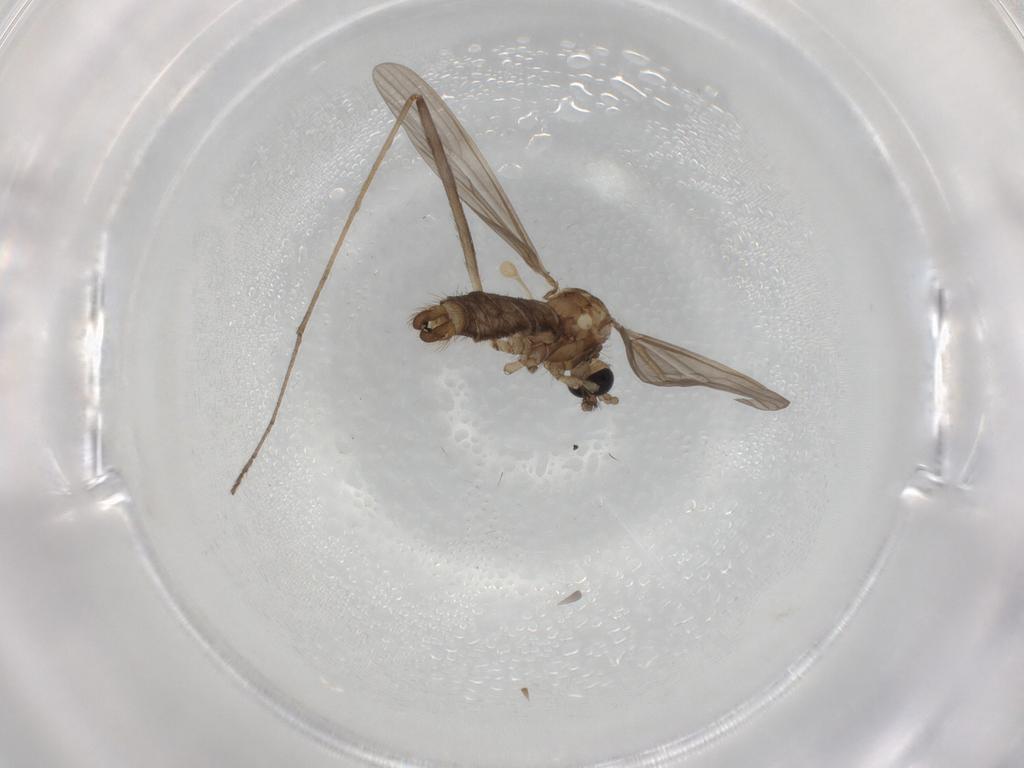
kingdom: Animalia
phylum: Arthropoda
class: Insecta
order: Diptera
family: Limoniidae
